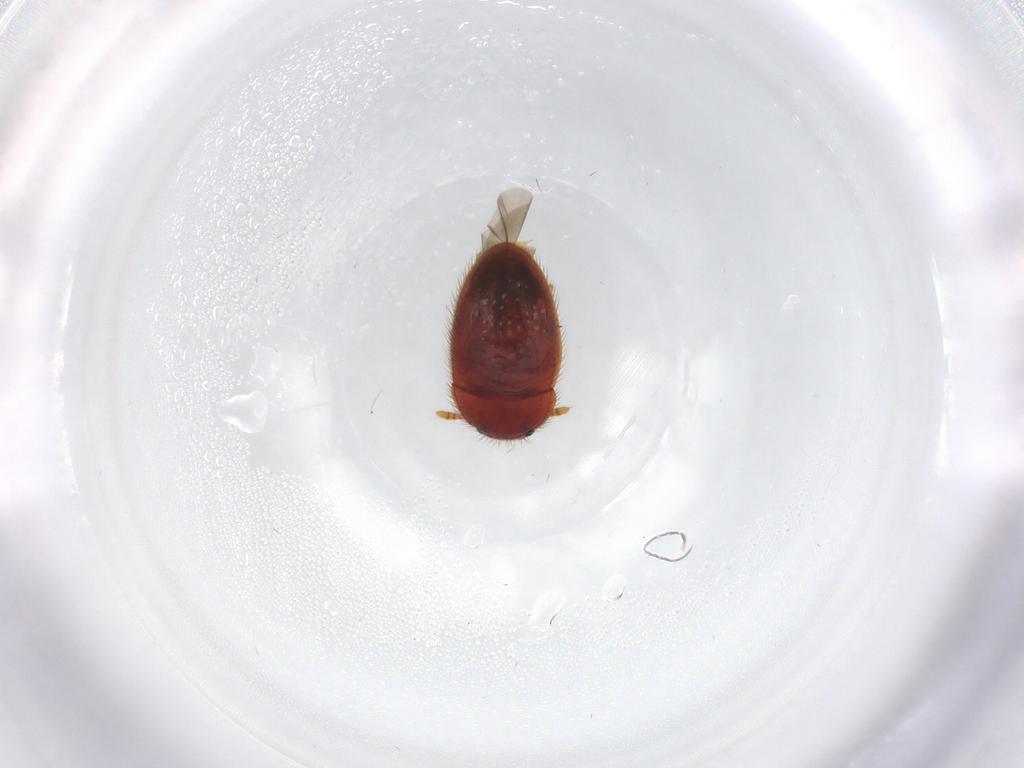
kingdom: Animalia
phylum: Arthropoda
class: Insecta
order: Coleoptera
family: Biphyllidae
